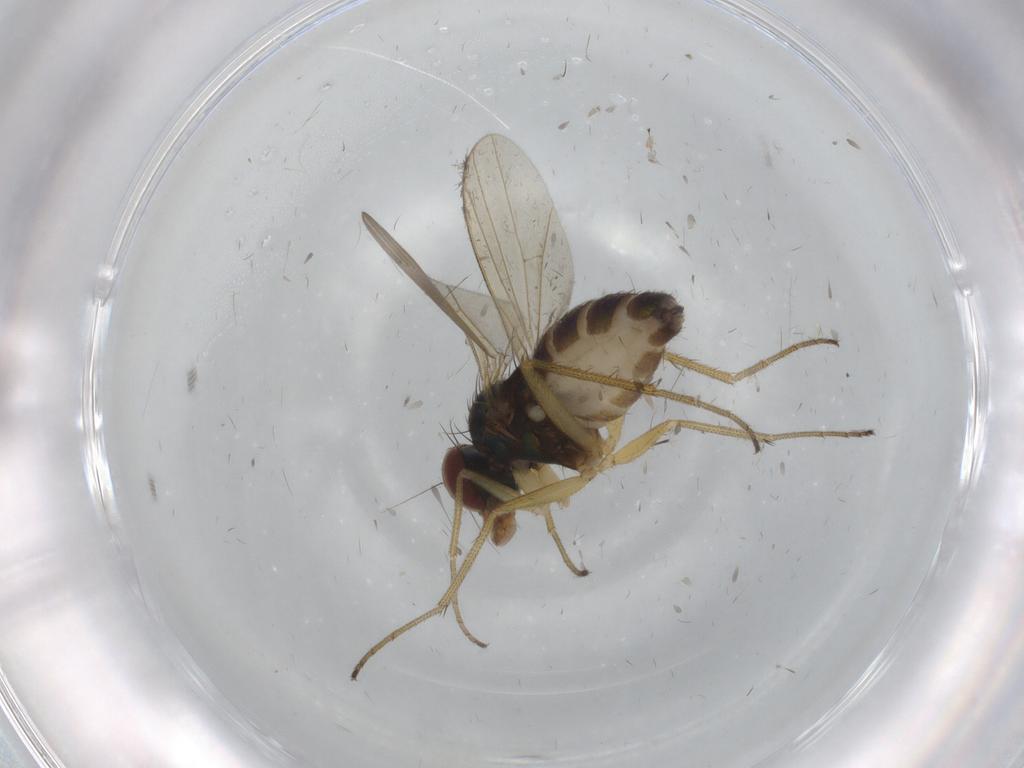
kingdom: Animalia
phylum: Arthropoda
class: Insecta
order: Diptera
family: Dolichopodidae
